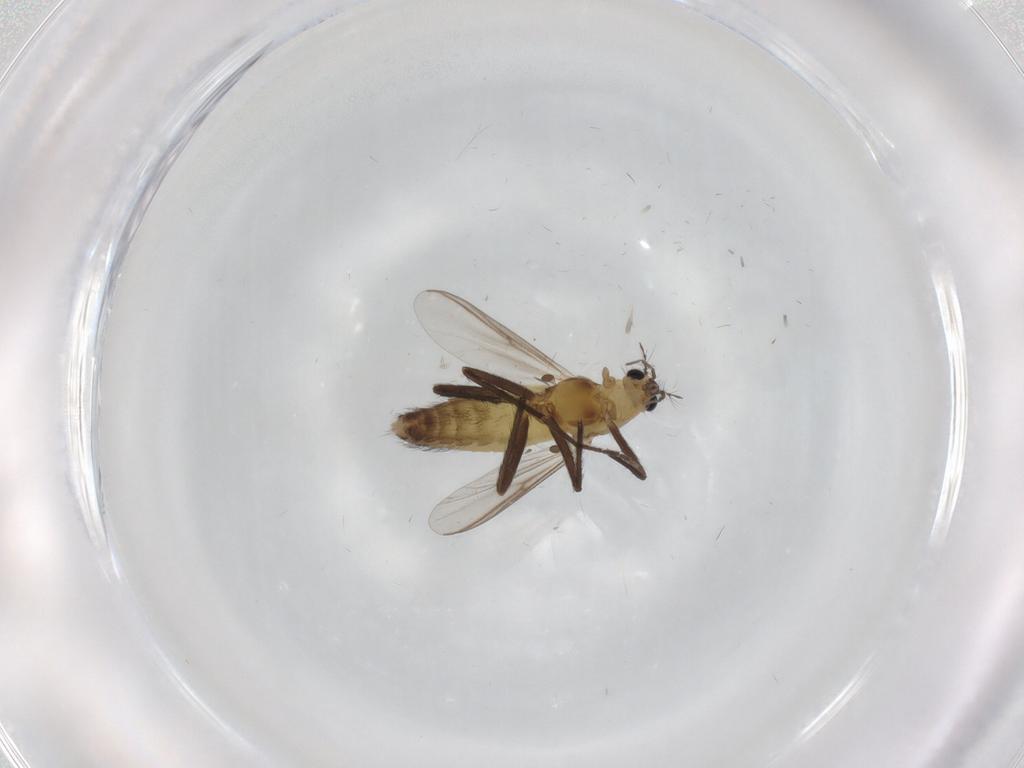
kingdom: Animalia
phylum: Arthropoda
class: Insecta
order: Diptera
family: Chironomidae
